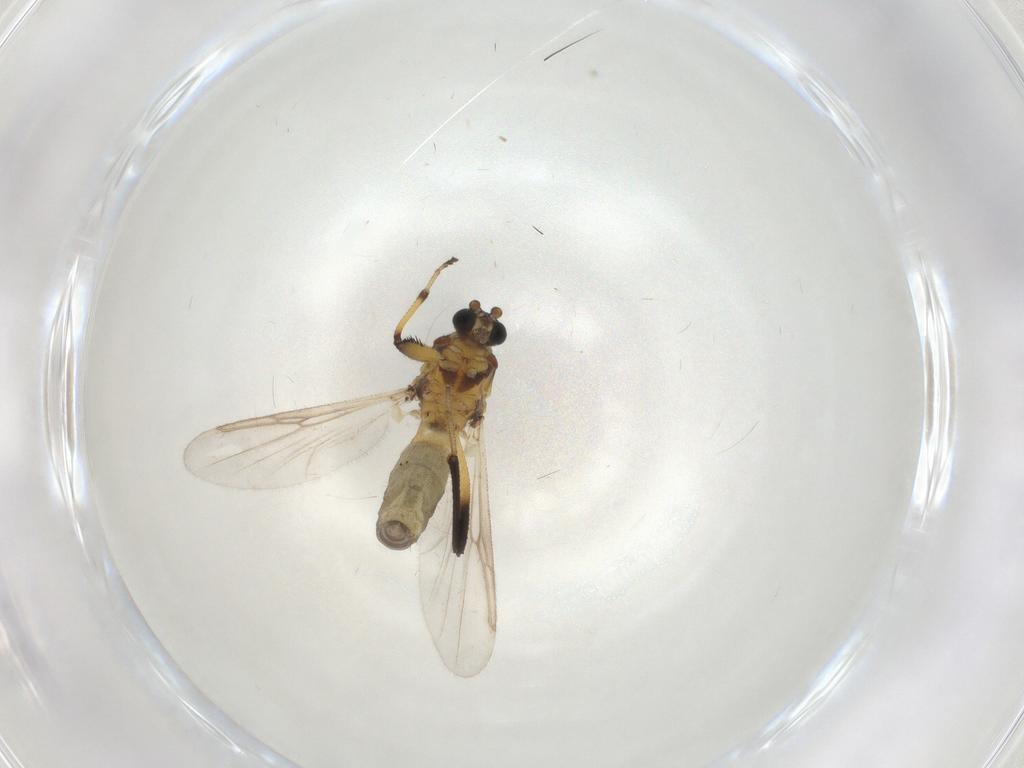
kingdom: Animalia
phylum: Arthropoda
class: Insecta
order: Diptera
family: Ceratopogonidae
